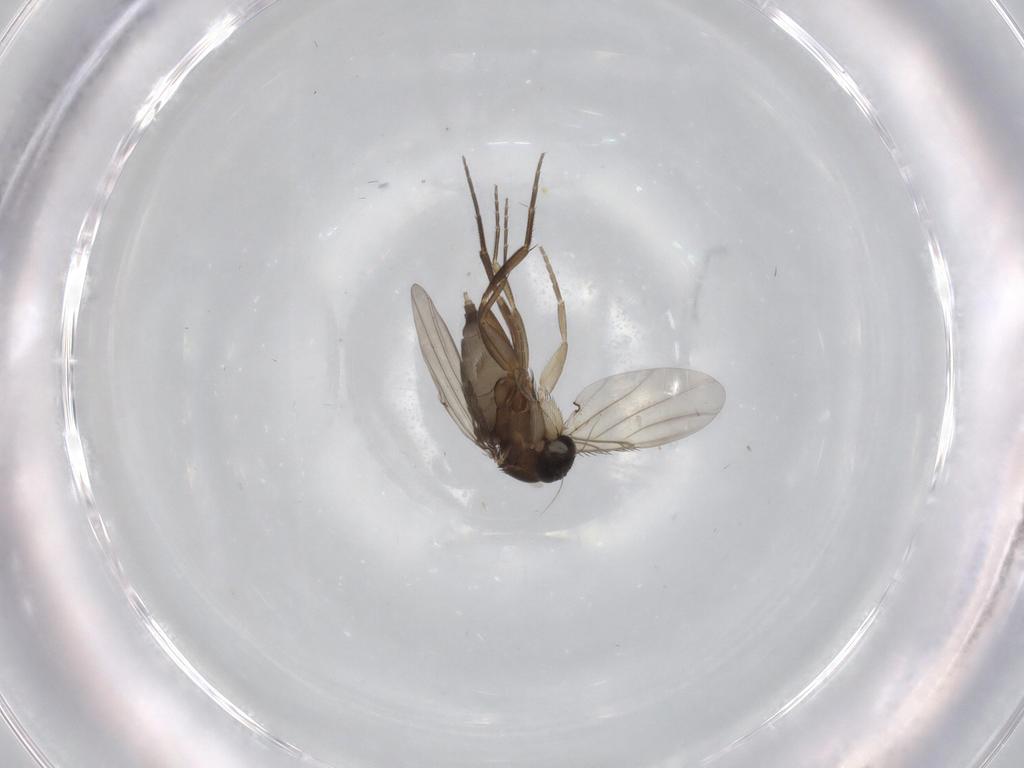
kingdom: Animalia
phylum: Arthropoda
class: Insecta
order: Diptera
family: Phoridae
